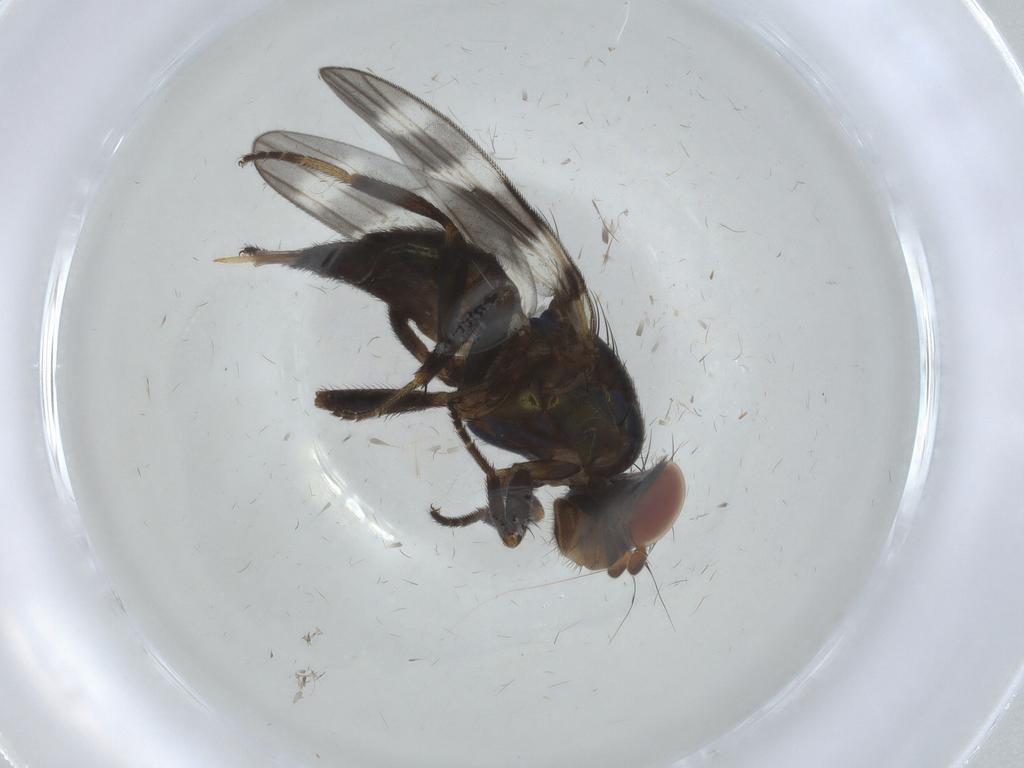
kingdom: Animalia
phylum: Arthropoda
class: Insecta
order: Diptera
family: Ulidiidae
